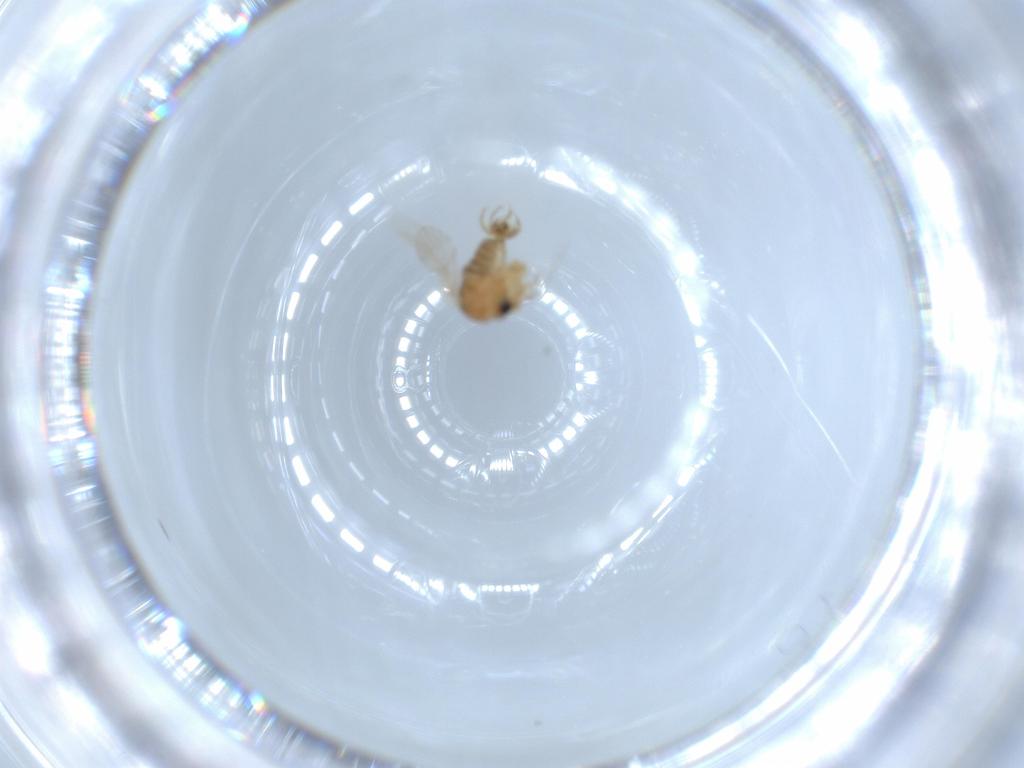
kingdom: Animalia
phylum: Arthropoda
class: Insecta
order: Diptera
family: Psychodidae
